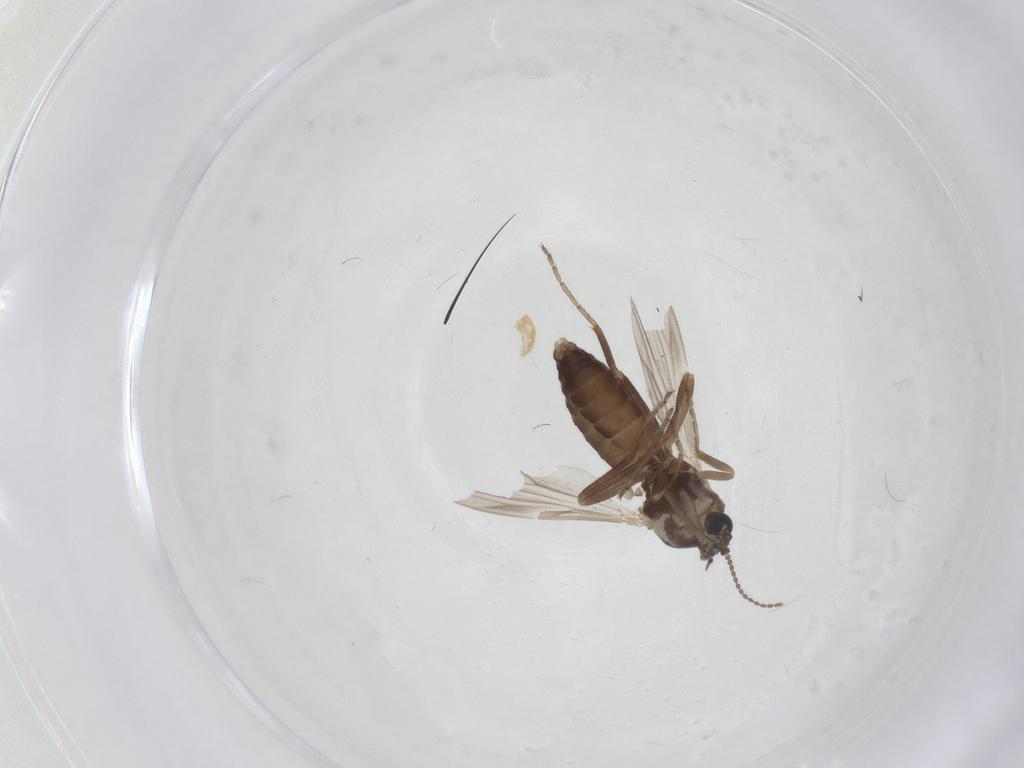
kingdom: Animalia
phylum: Arthropoda
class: Insecta
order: Diptera
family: Ceratopogonidae
